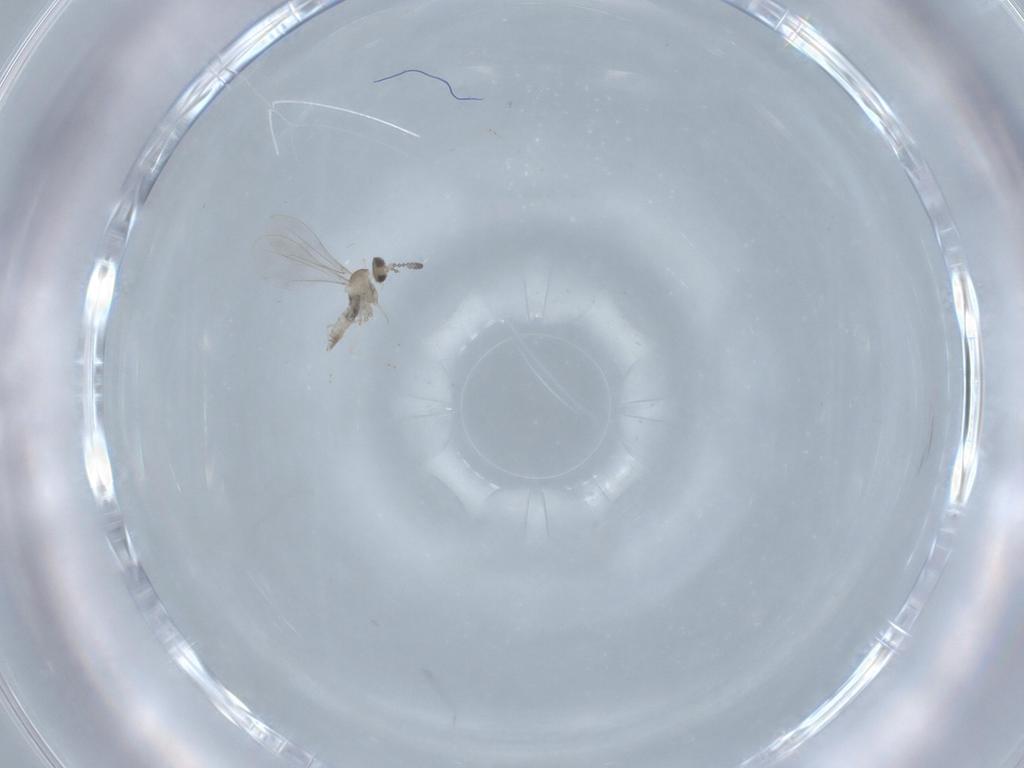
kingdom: Animalia
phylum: Arthropoda
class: Insecta
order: Diptera
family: Cecidomyiidae
